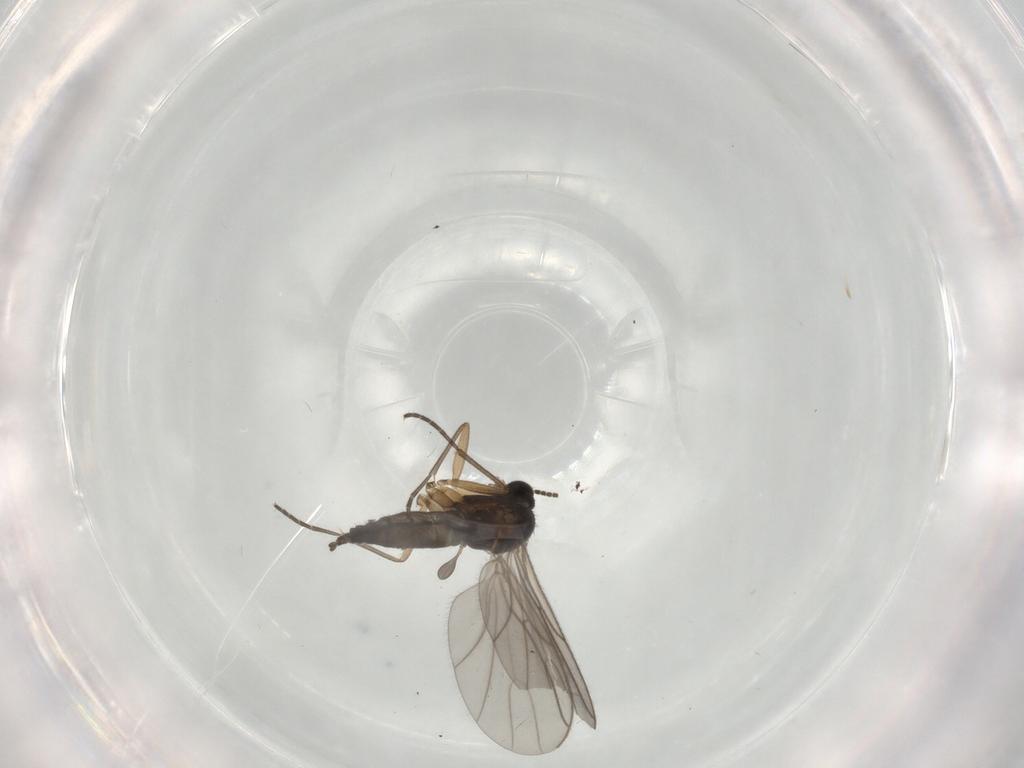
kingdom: Animalia
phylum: Arthropoda
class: Insecta
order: Diptera
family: Sciaridae
